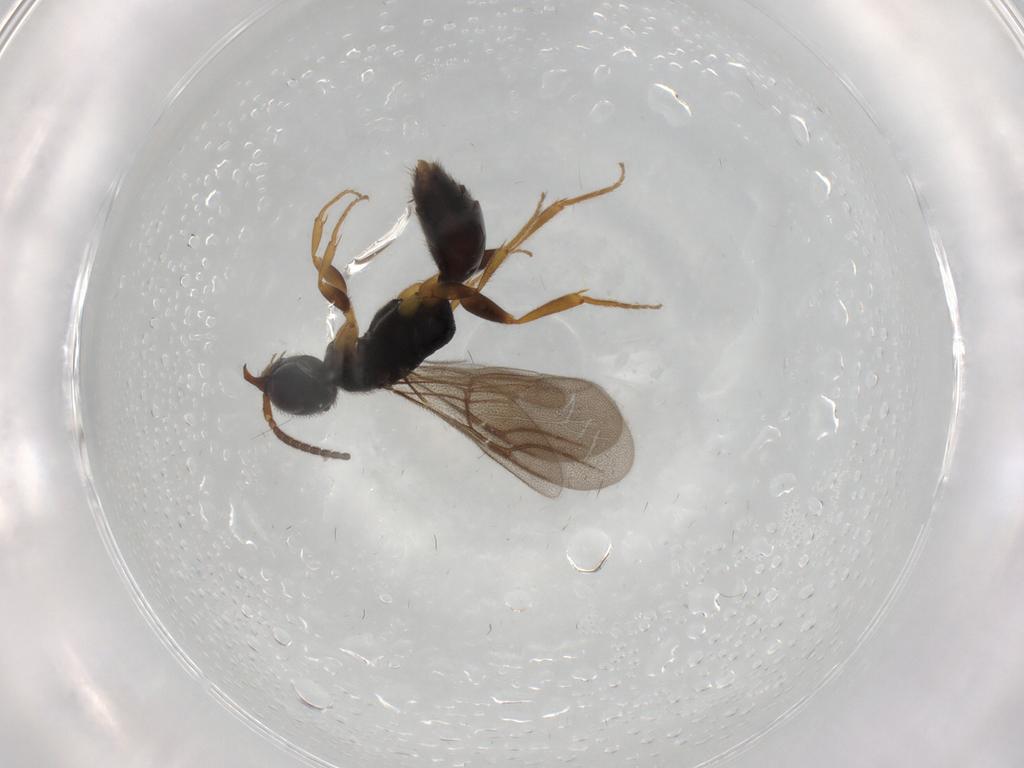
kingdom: Animalia
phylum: Arthropoda
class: Insecta
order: Hymenoptera
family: Bethylidae
